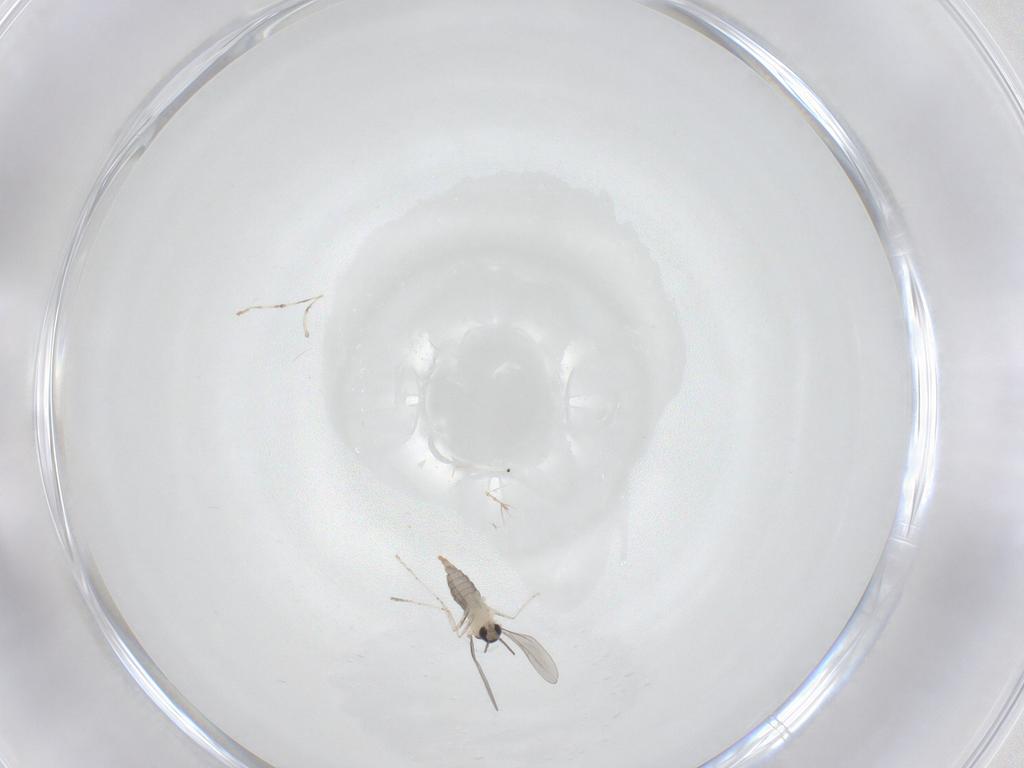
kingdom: Animalia
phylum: Arthropoda
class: Insecta
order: Diptera
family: Cecidomyiidae
